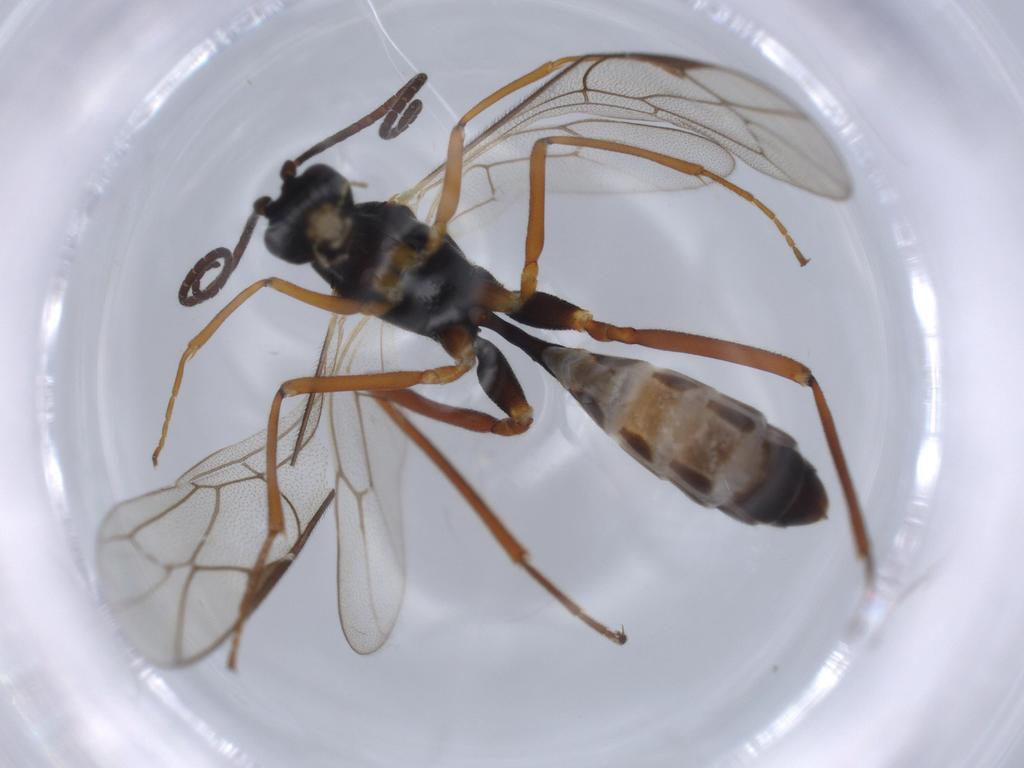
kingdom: Animalia
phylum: Arthropoda
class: Insecta
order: Hymenoptera
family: Ichneumonidae
